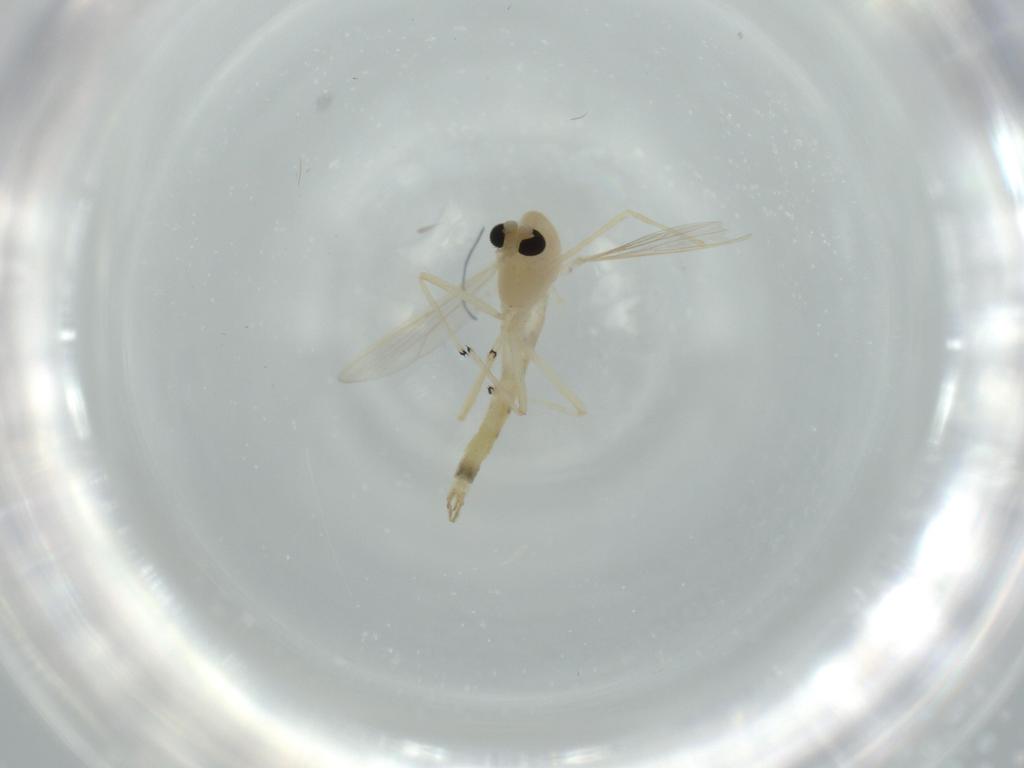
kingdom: Animalia
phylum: Arthropoda
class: Insecta
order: Diptera
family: Chironomidae
